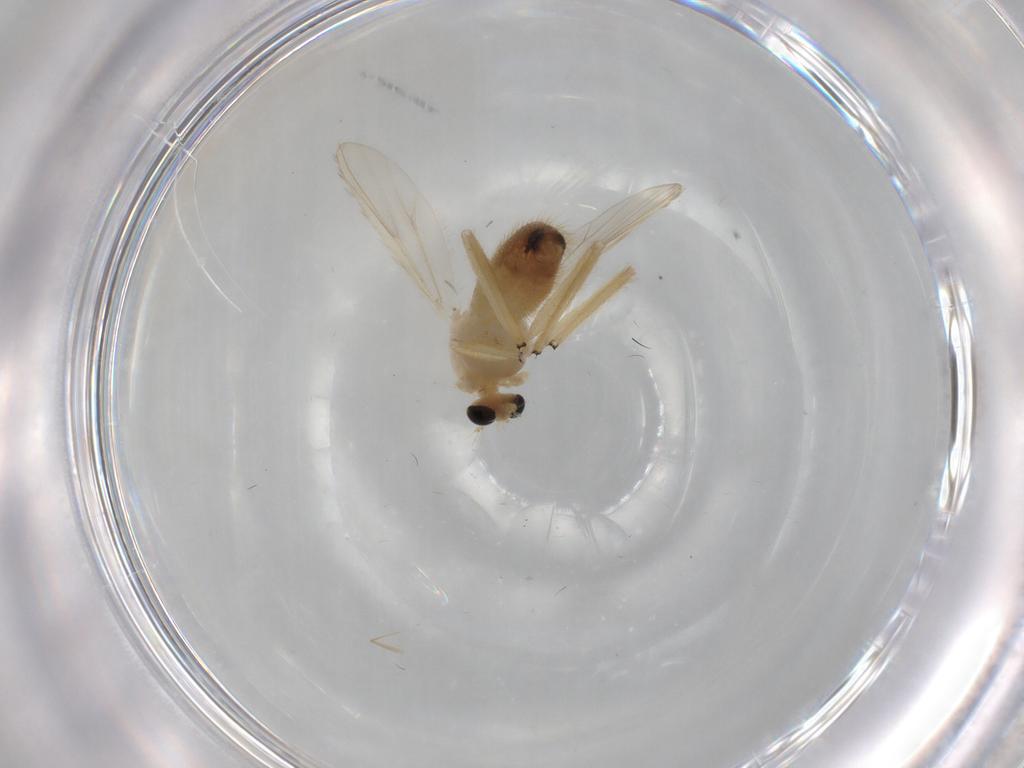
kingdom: Animalia
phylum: Arthropoda
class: Insecta
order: Diptera
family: Chironomidae
